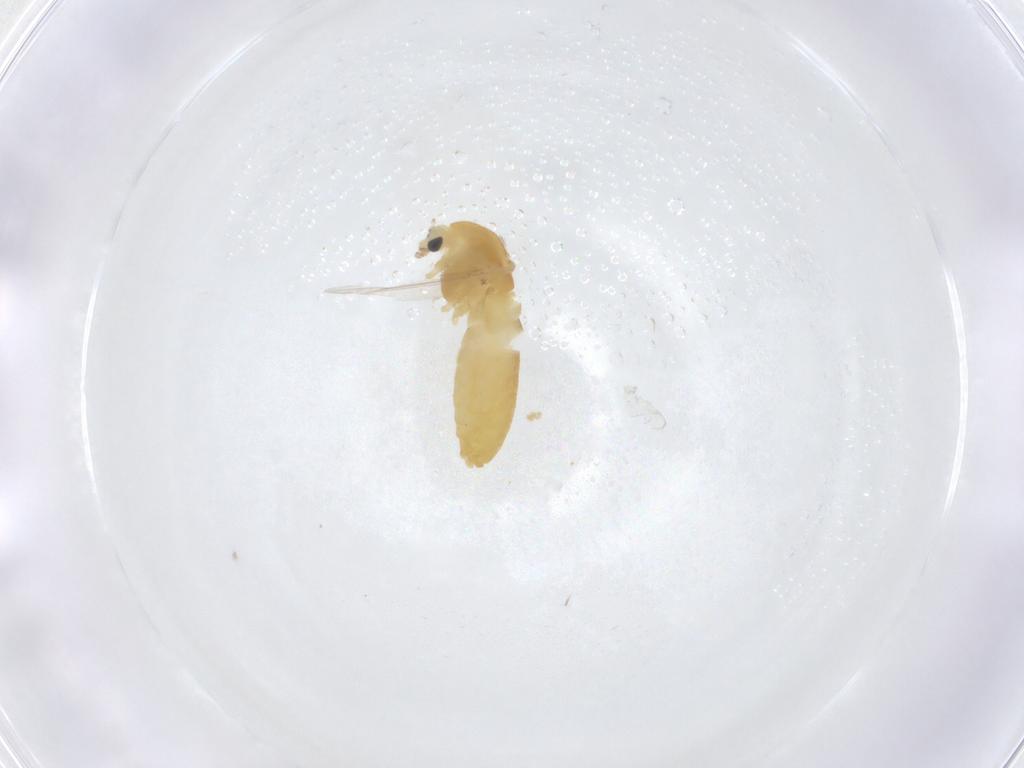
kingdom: Animalia
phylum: Arthropoda
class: Insecta
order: Diptera
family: Chironomidae
